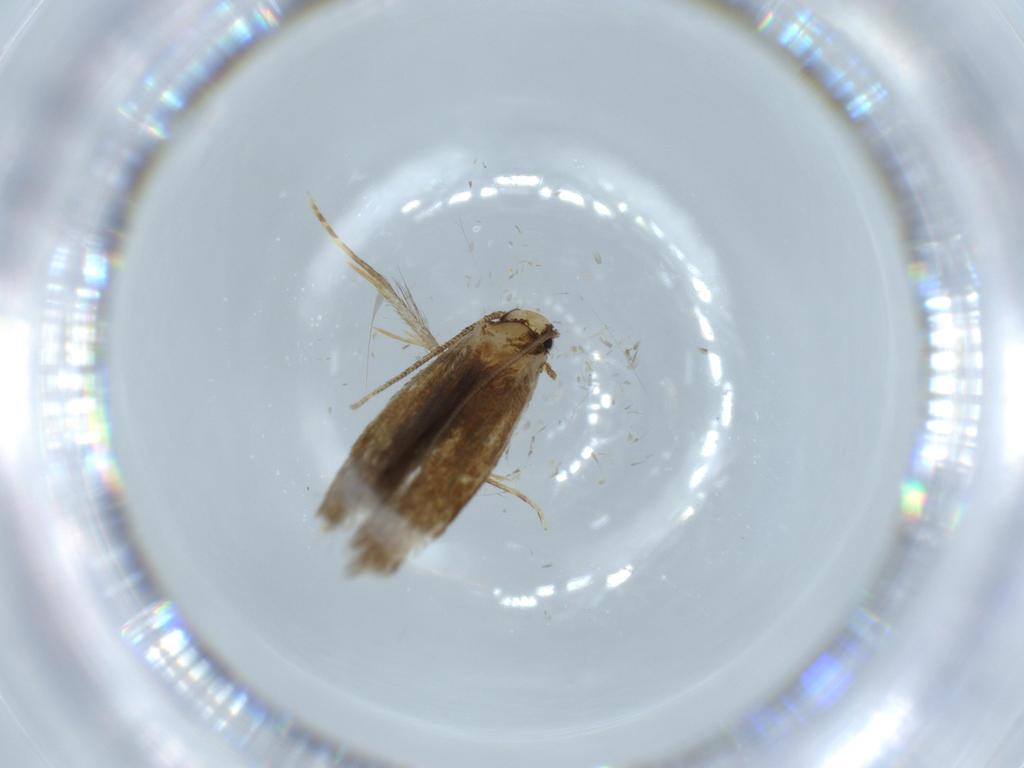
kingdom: Animalia
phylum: Arthropoda
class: Insecta
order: Lepidoptera
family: Tineidae
